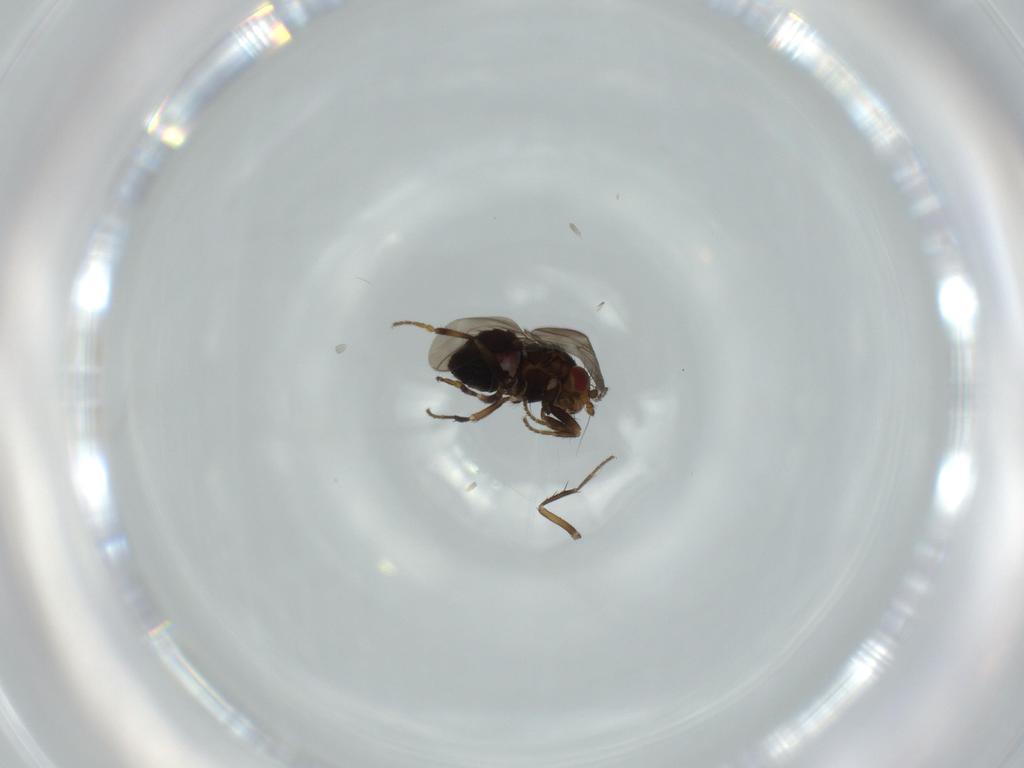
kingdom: Animalia
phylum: Arthropoda
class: Insecta
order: Diptera
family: Sphaeroceridae
